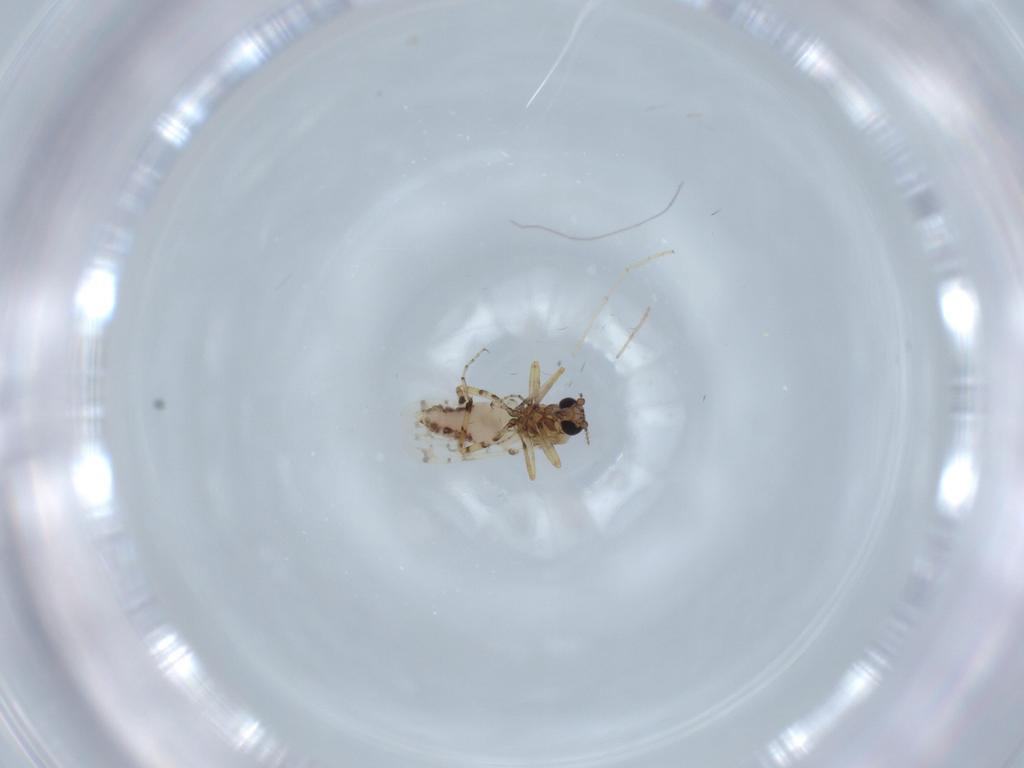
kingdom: Animalia
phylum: Arthropoda
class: Insecta
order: Diptera
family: Ceratopogonidae
